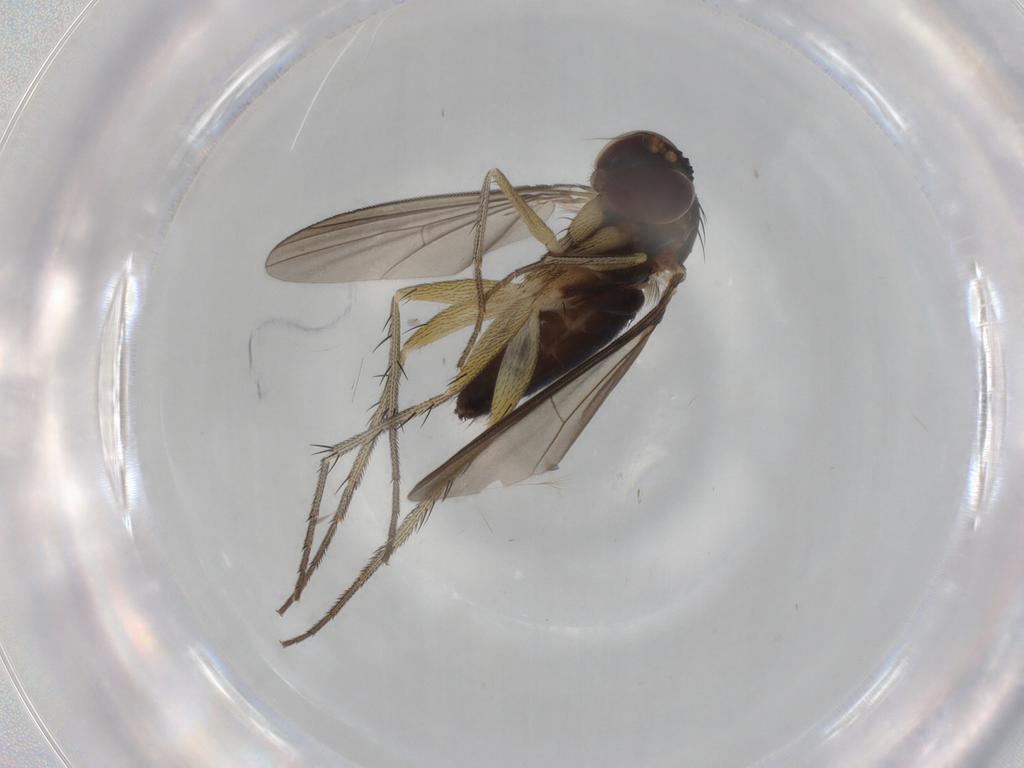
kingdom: Animalia
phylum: Arthropoda
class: Insecta
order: Diptera
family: Dolichopodidae
